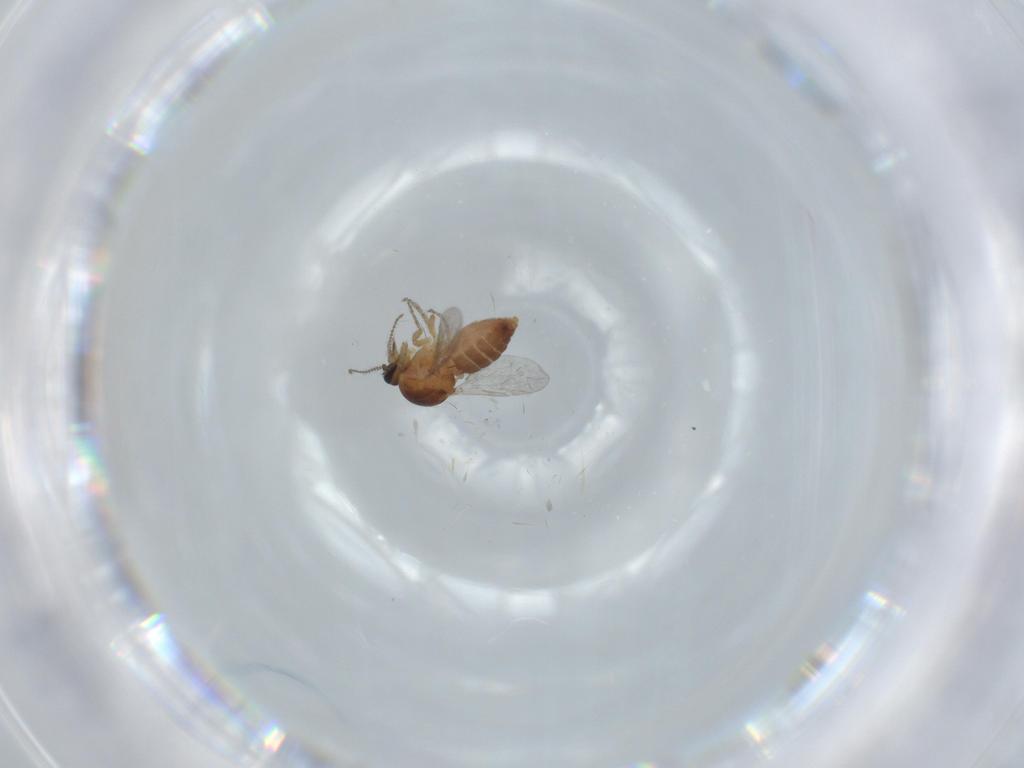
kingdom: Animalia
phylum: Arthropoda
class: Insecta
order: Diptera
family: Ceratopogonidae
